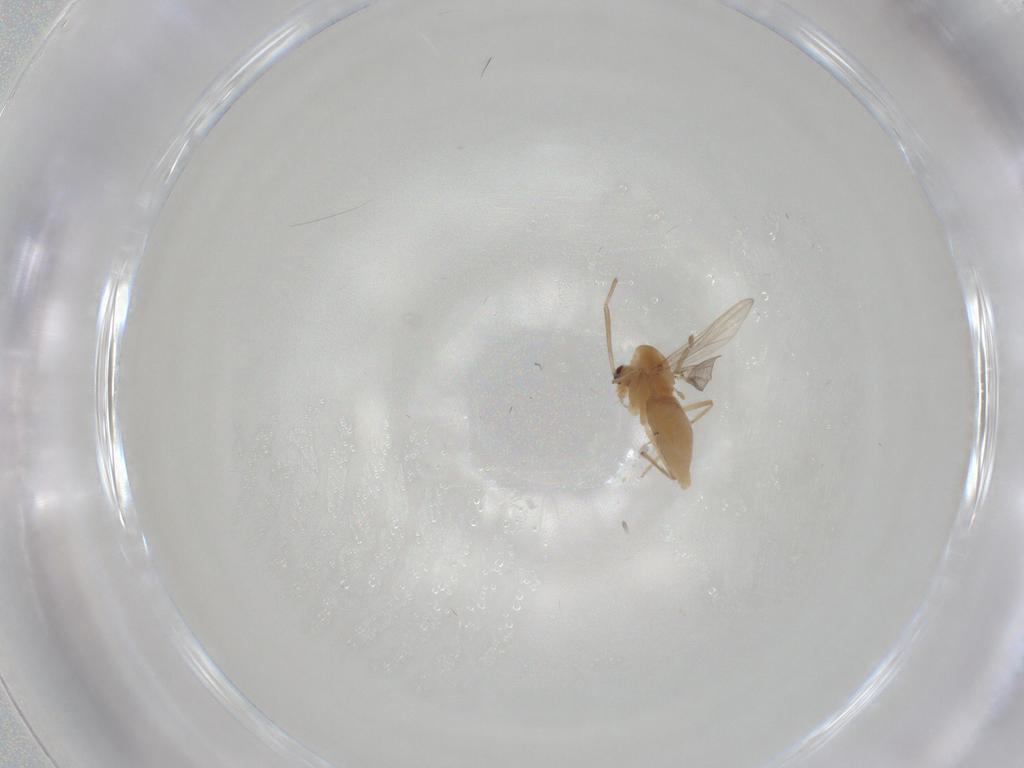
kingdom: Animalia
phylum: Arthropoda
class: Insecta
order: Diptera
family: Chironomidae
